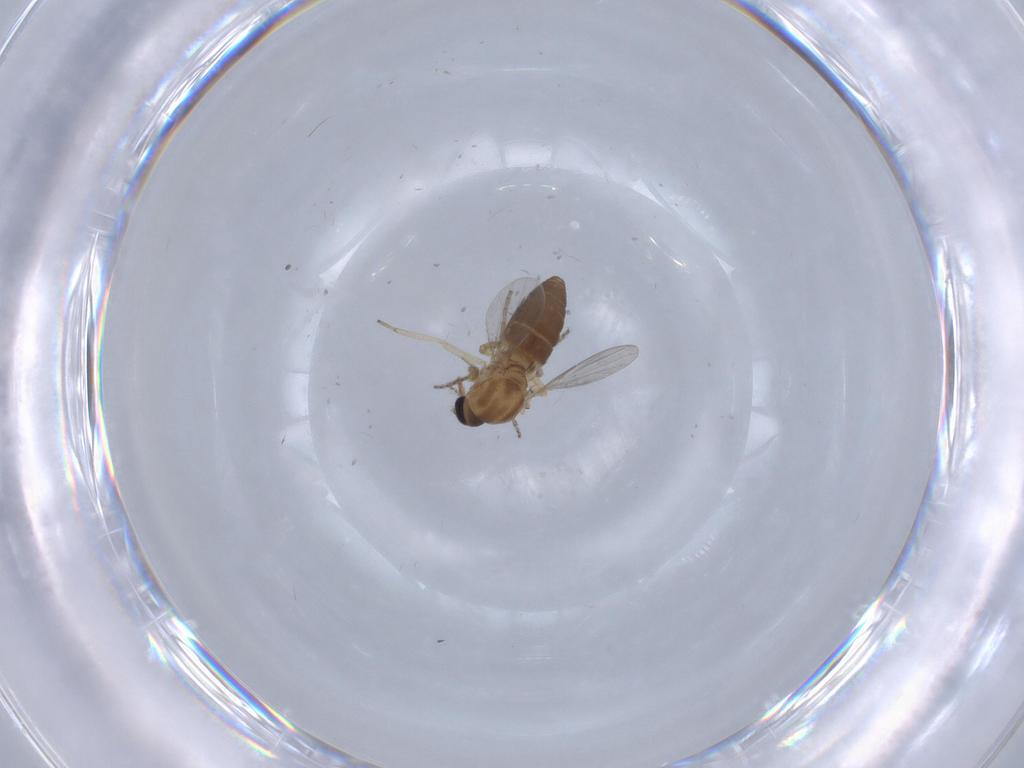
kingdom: Animalia
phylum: Arthropoda
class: Insecta
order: Diptera
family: Ceratopogonidae
